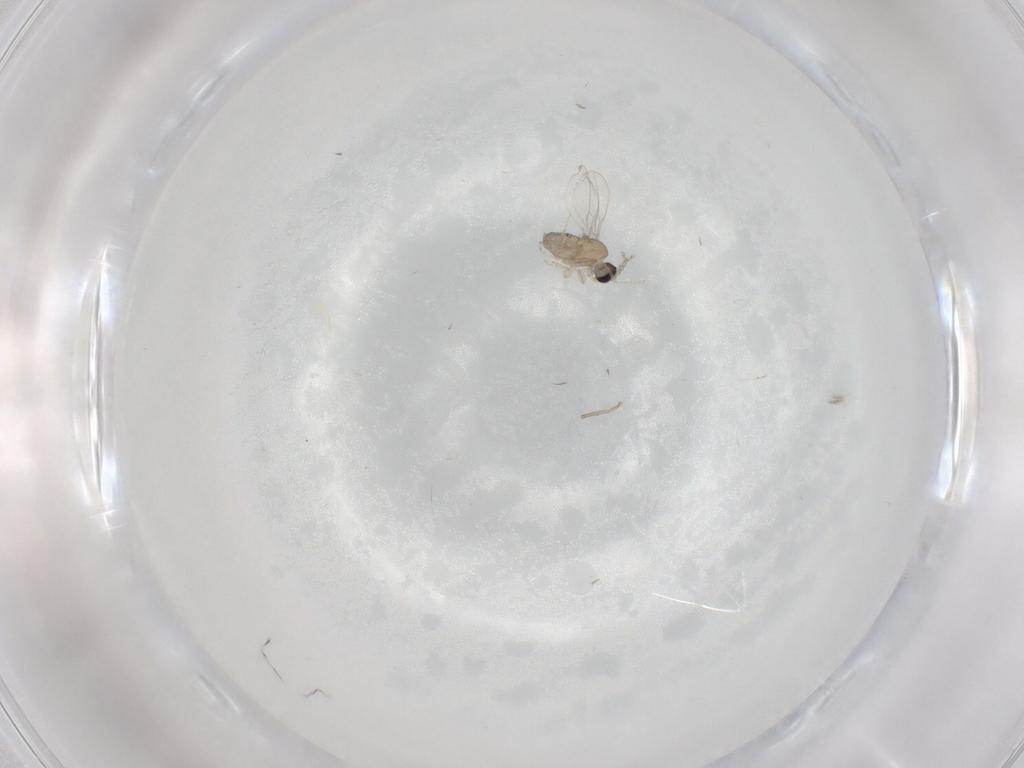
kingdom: Animalia
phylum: Arthropoda
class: Insecta
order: Diptera
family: Cecidomyiidae
